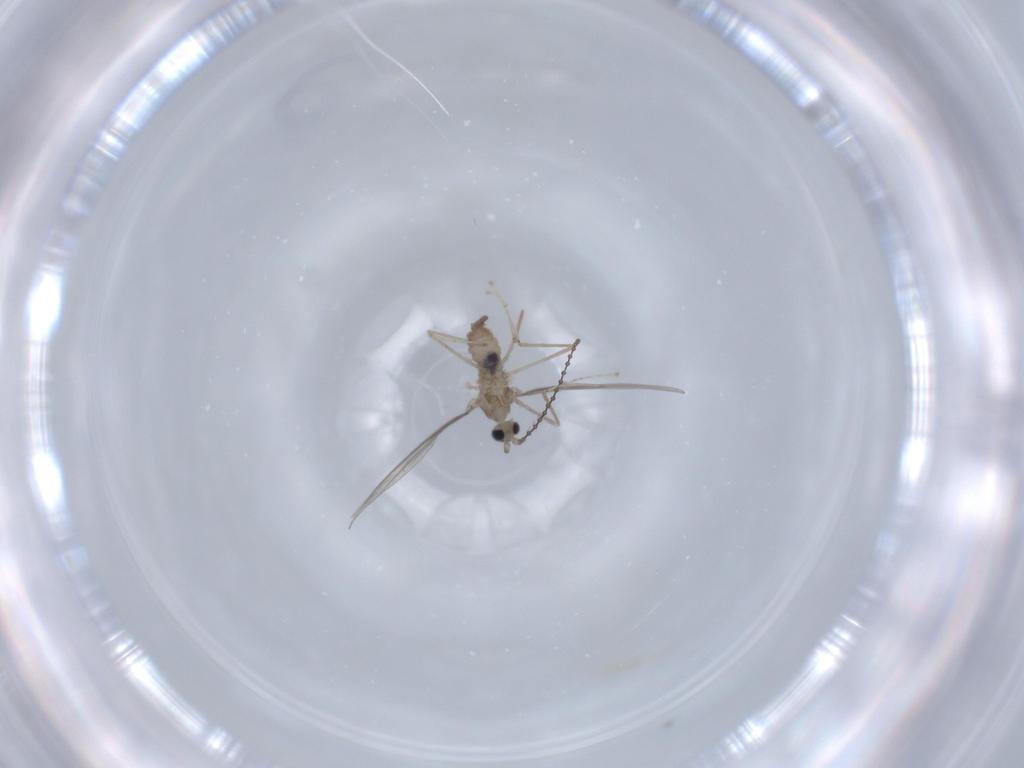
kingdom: Animalia
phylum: Arthropoda
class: Insecta
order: Diptera
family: Cecidomyiidae
